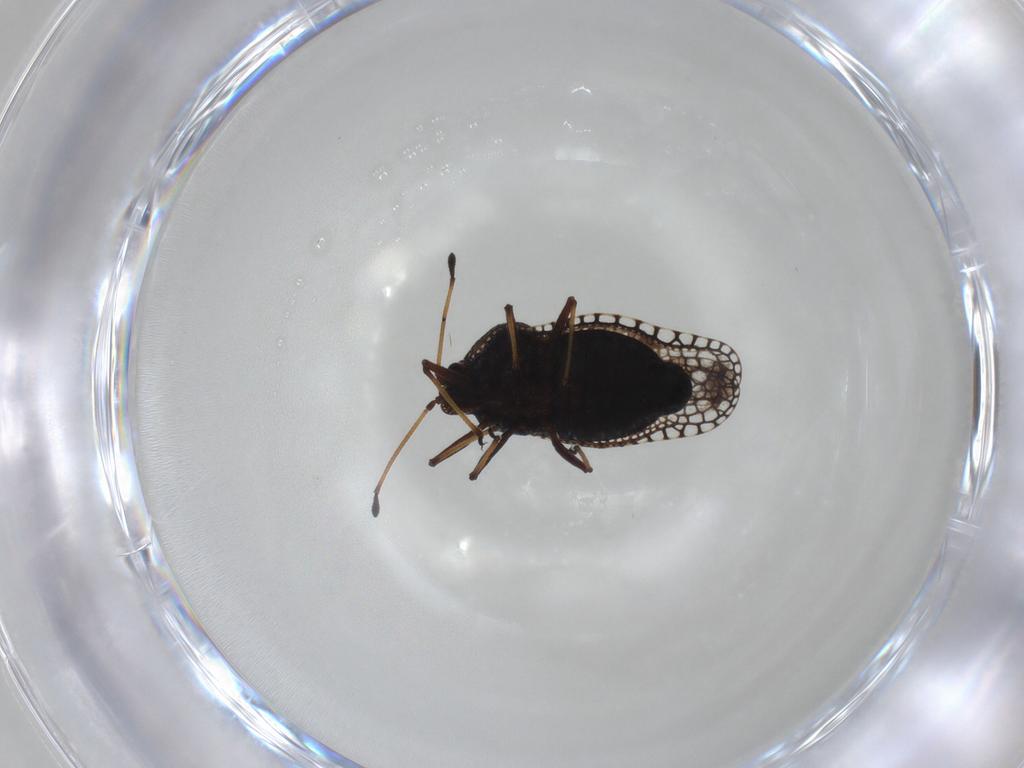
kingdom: Animalia
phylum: Arthropoda
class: Insecta
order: Hemiptera
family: Tingidae
